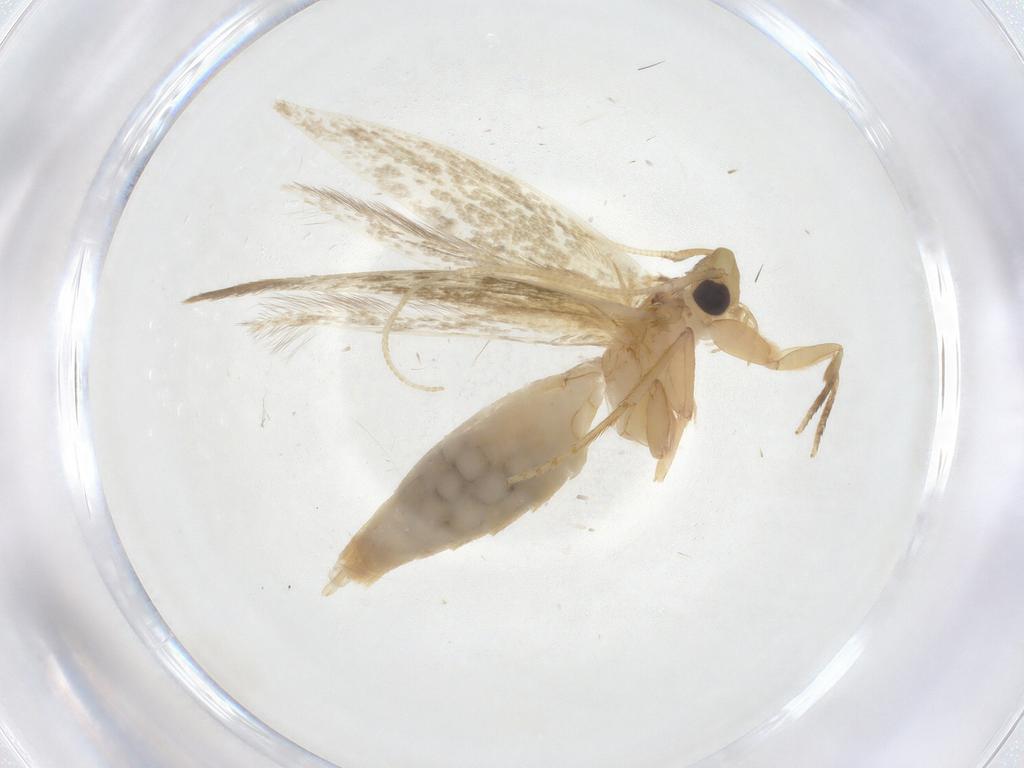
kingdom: Animalia
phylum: Arthropoda
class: Insecta
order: Lepidoptera
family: Tineidae
